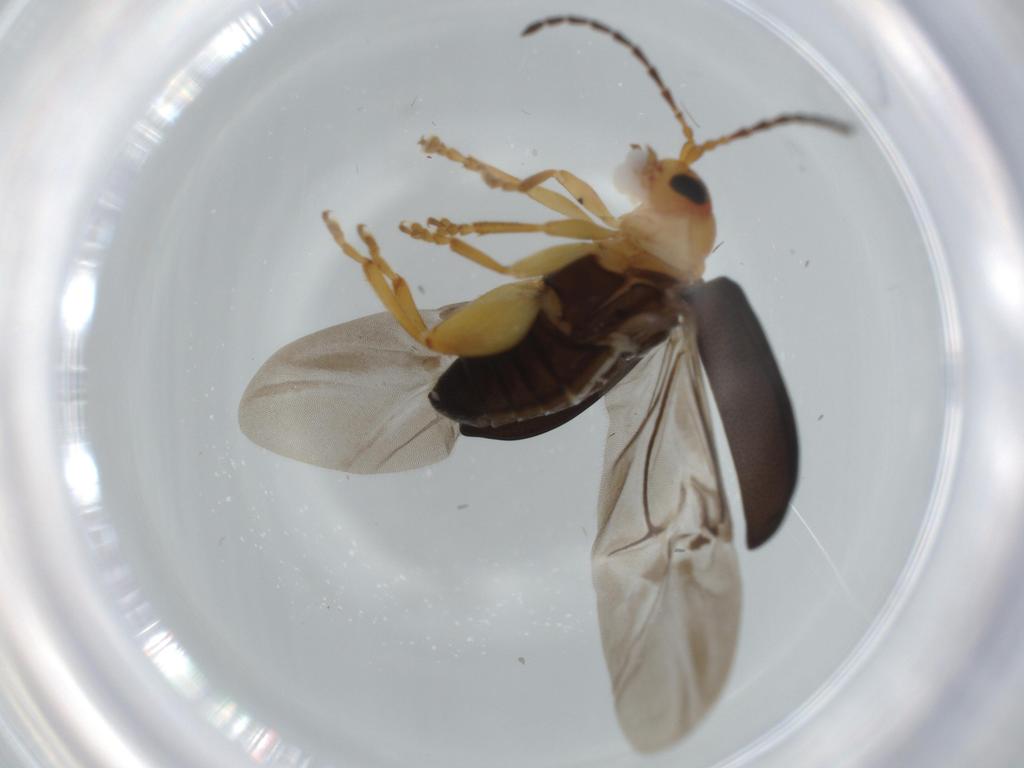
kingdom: Animalia
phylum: Arthropoda
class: Insecta
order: Coleoptera
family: Chrysomelidae
